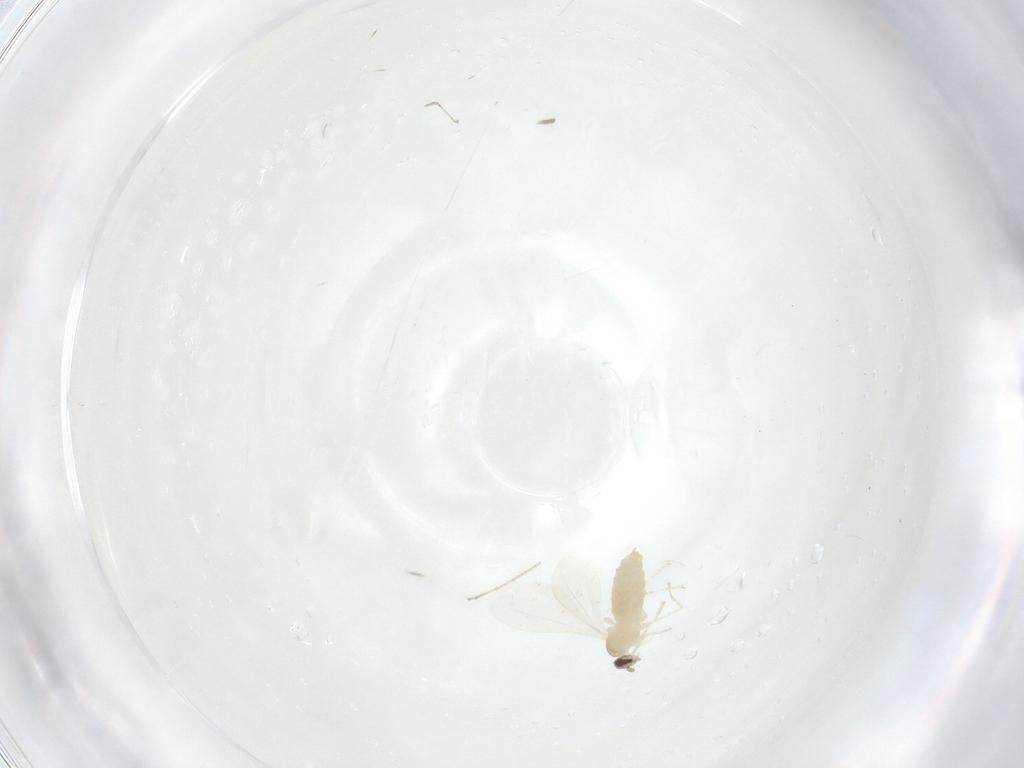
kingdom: Animalia
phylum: Arthropoda
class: Insecta
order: Diptera
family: Cecidomyiidae
